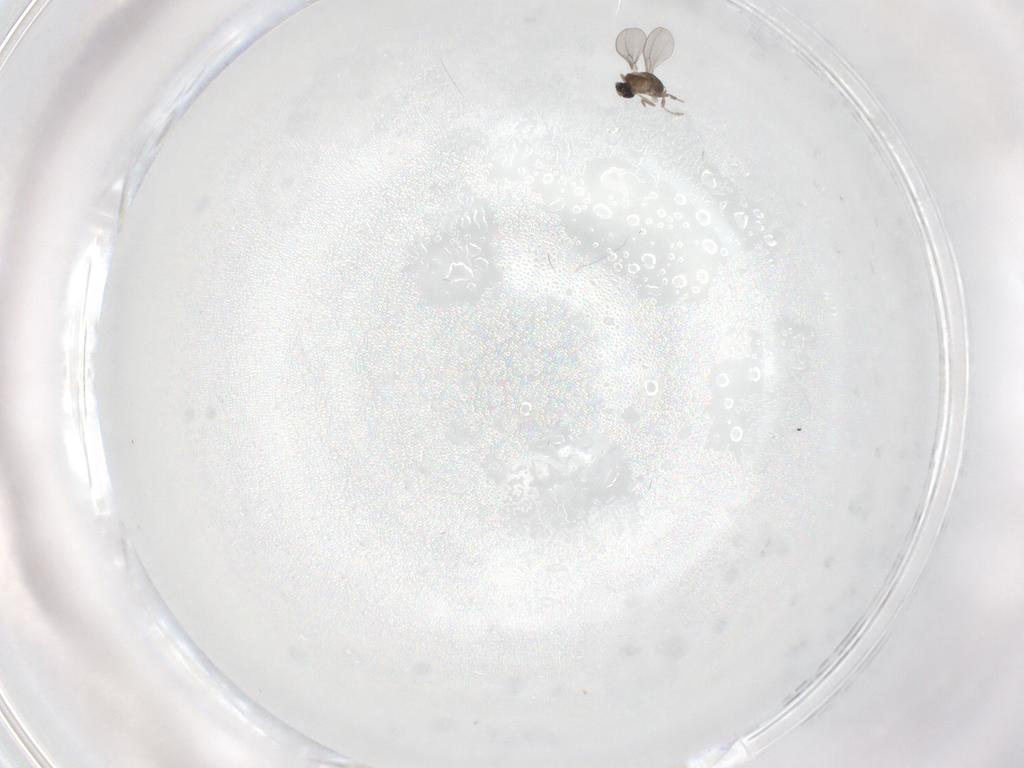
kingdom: Animalia
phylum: Arthropoda
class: Insecta
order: Diptera
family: Cecidomyiidae
